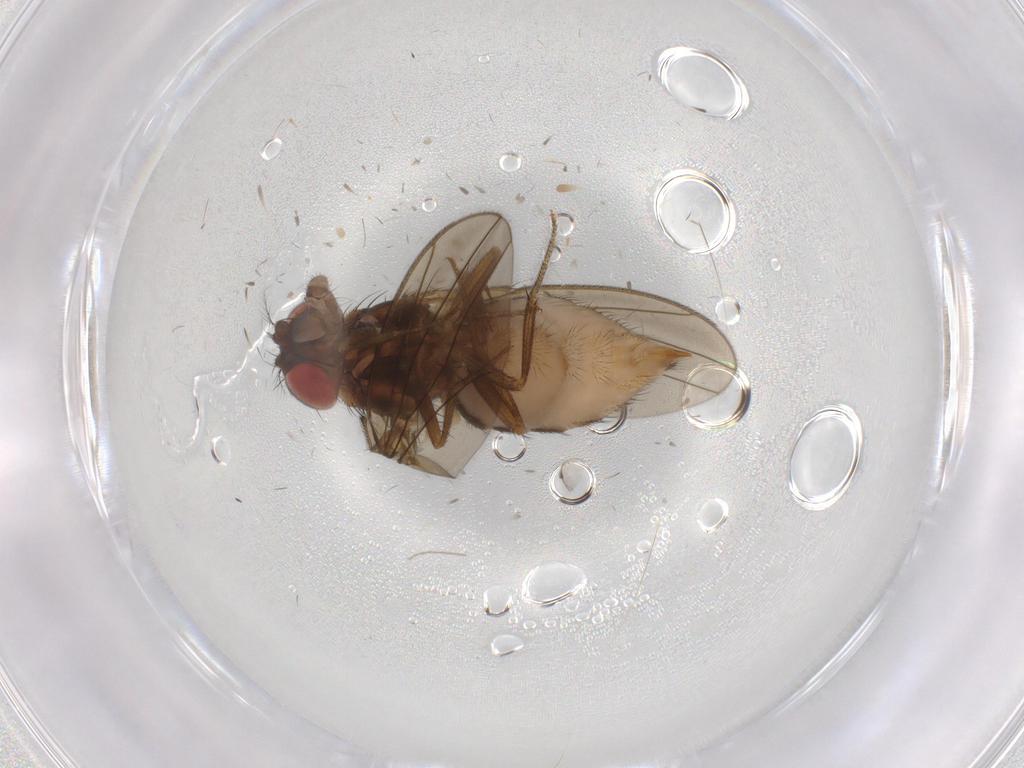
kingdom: Animalia
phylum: Arthropoda
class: Insecta
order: Diptera
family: Drosophilidae
